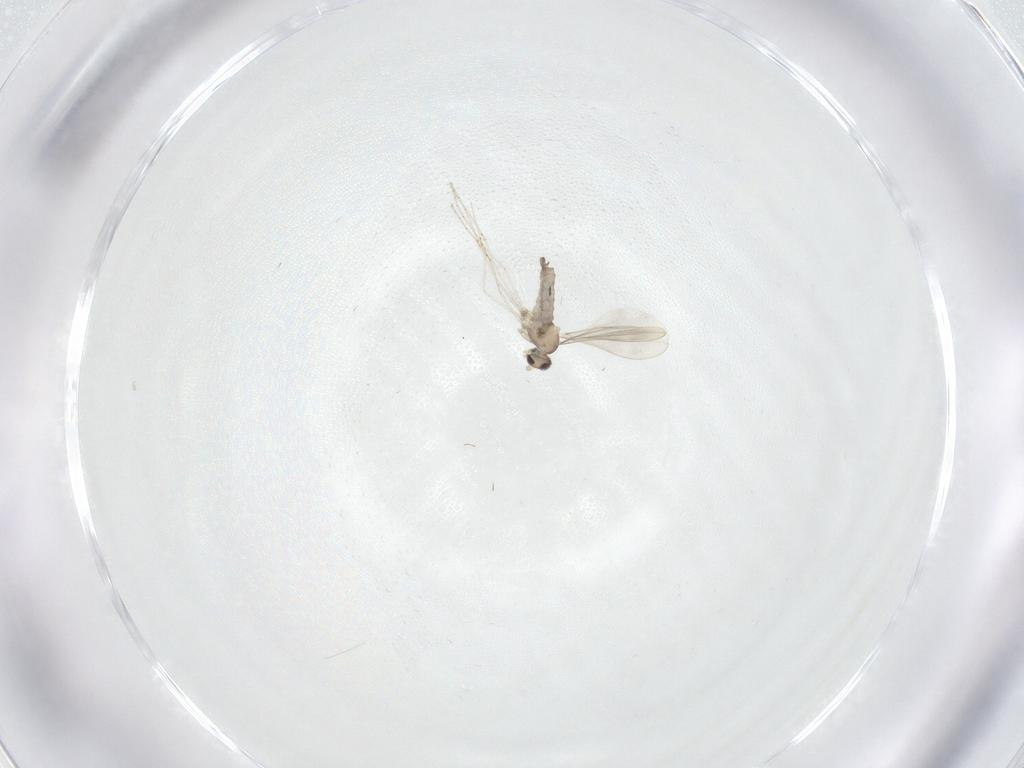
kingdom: Animalia
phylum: Arthropoda
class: Insecta
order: Diptera
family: Cecidomyiidae
